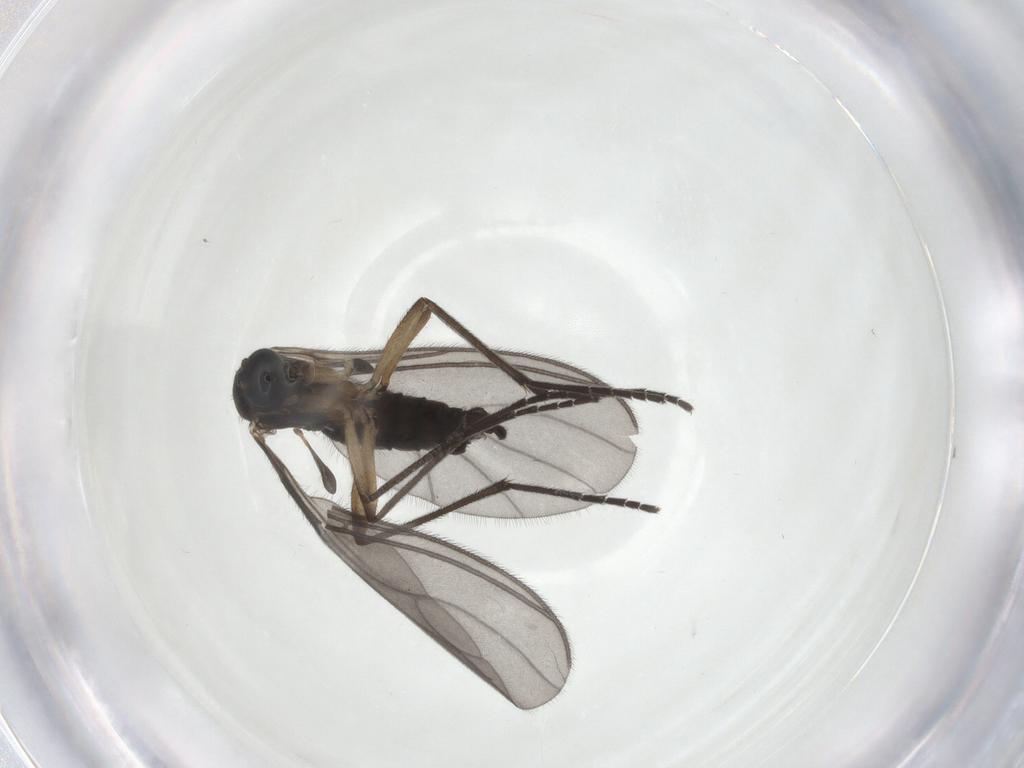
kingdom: Animalia
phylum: Arthropoda
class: Insecta
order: Diptera
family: Sciaridae
